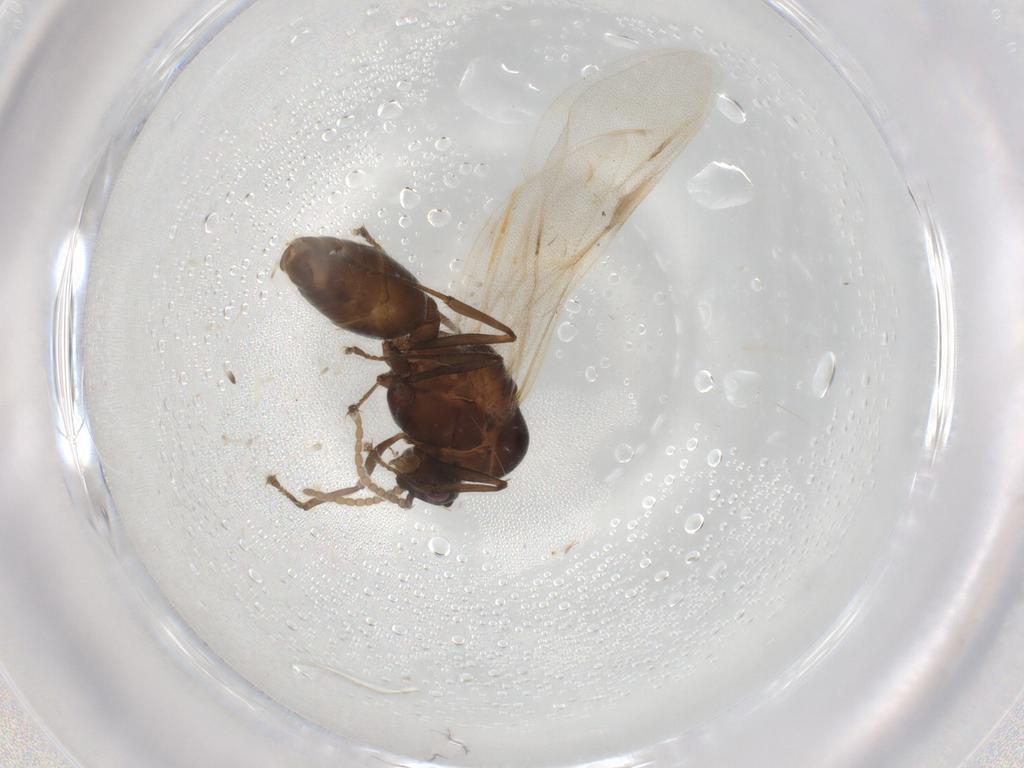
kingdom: Animalia
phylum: Arthropoda
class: Insecta
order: Hymenoptera
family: Formicidae
